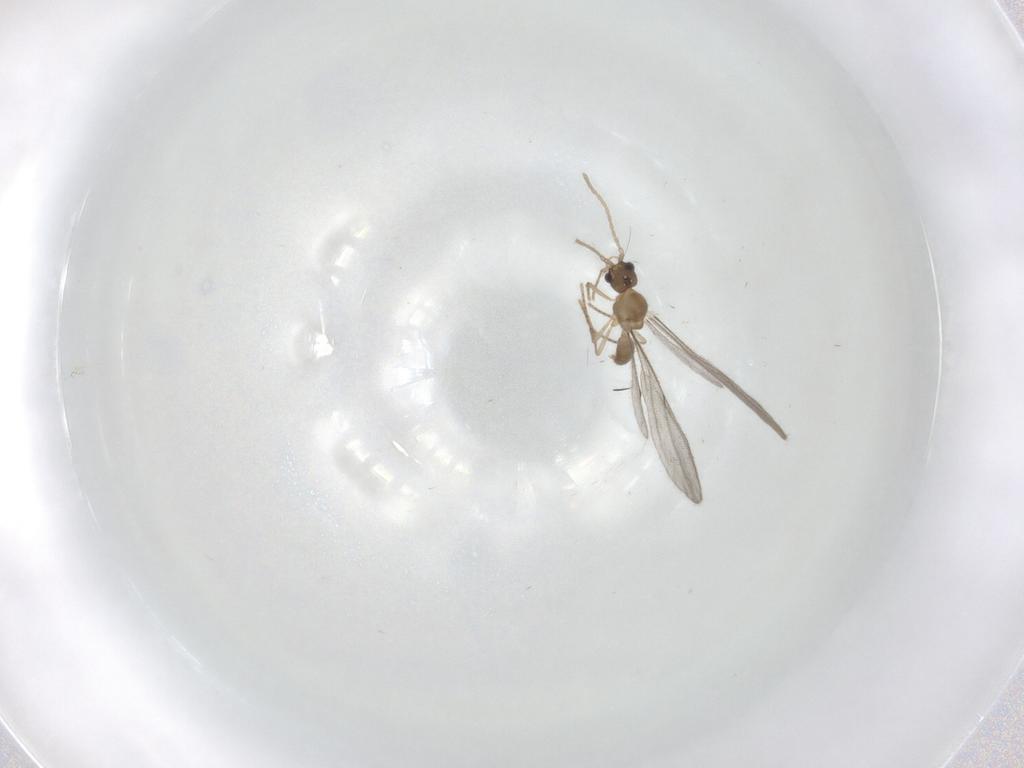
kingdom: Animalia
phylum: Arthropoda
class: Insecta
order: Hymenoptera
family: Formicidae
